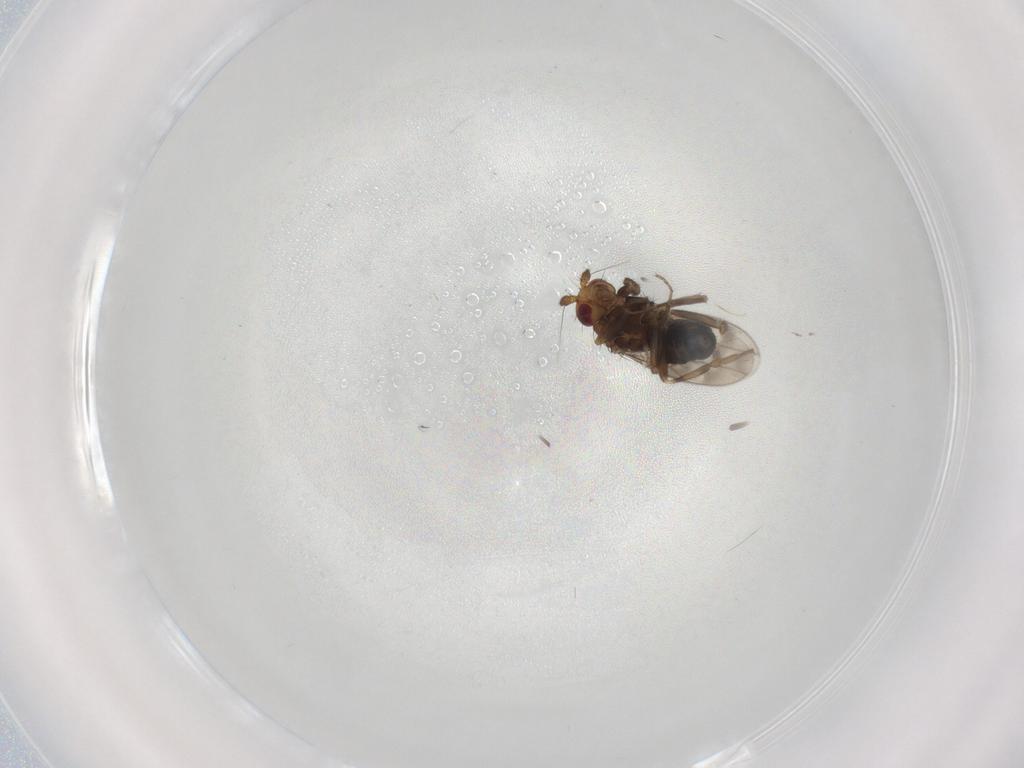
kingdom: Animalia
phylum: Arthropoda
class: Insecta
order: Diptera
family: Sphaeroceridae
